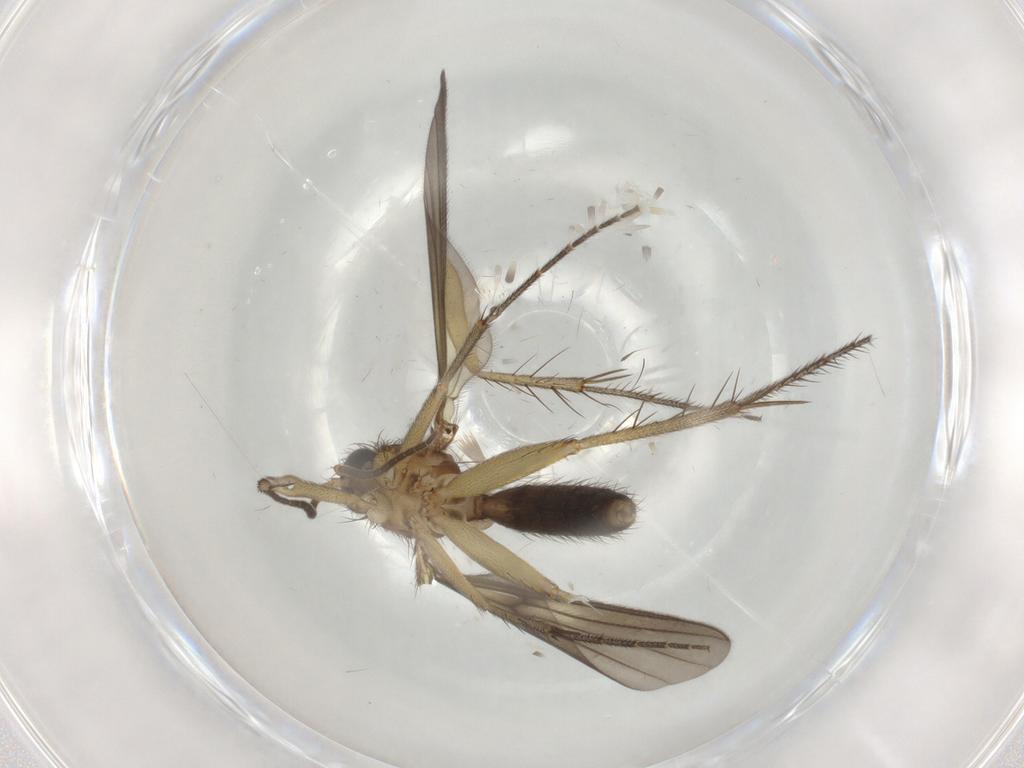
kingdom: Animalia
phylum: Arthropoda
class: Insecta
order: Diptera
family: Mycetophilidae
